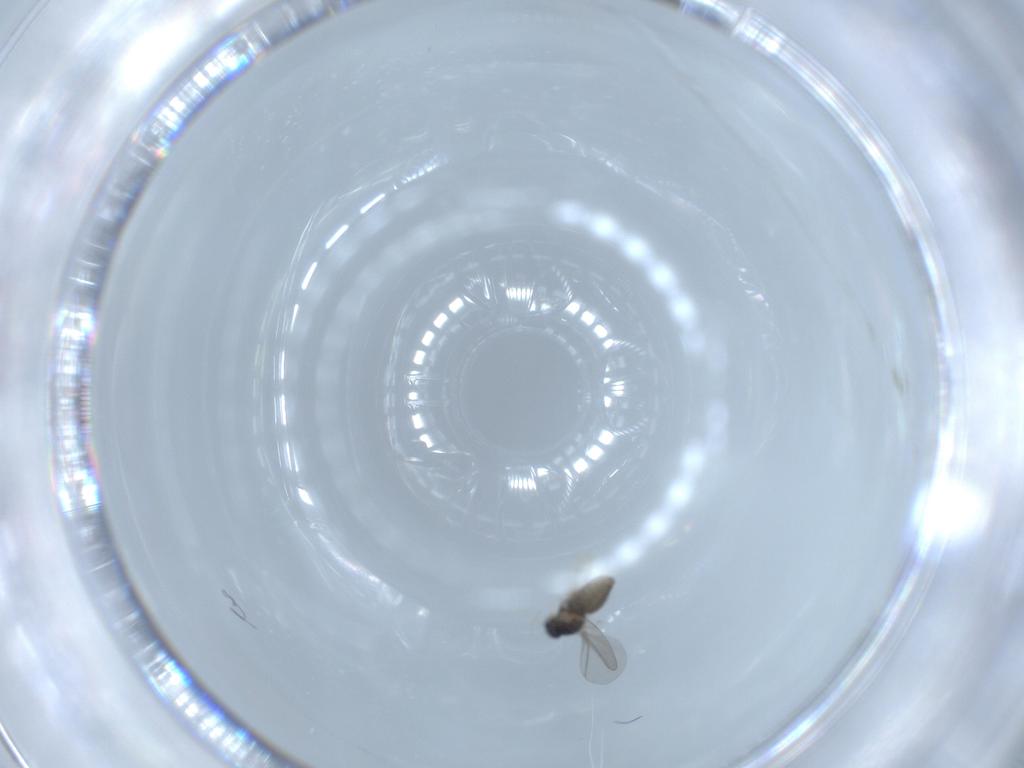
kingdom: Animalia
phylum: Arthropoda
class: Insecta
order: Diptera
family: Cecidomyiidae
